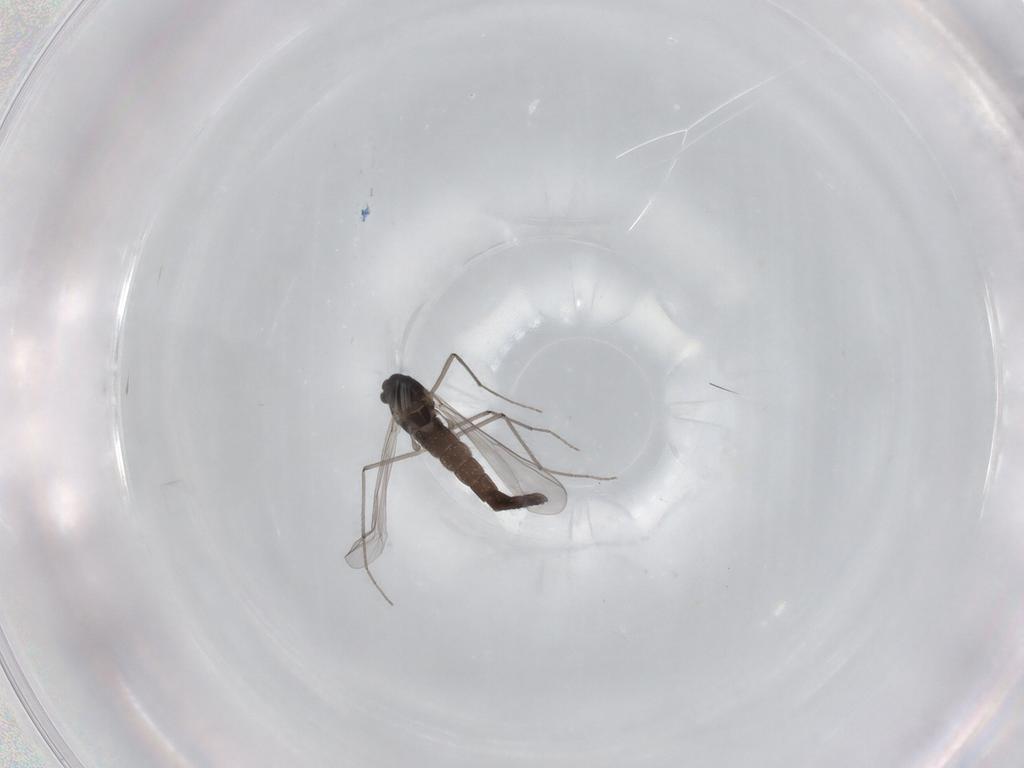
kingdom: Animalia
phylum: Arthropoda
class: Insecta
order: Diptera
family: Chironomidae
